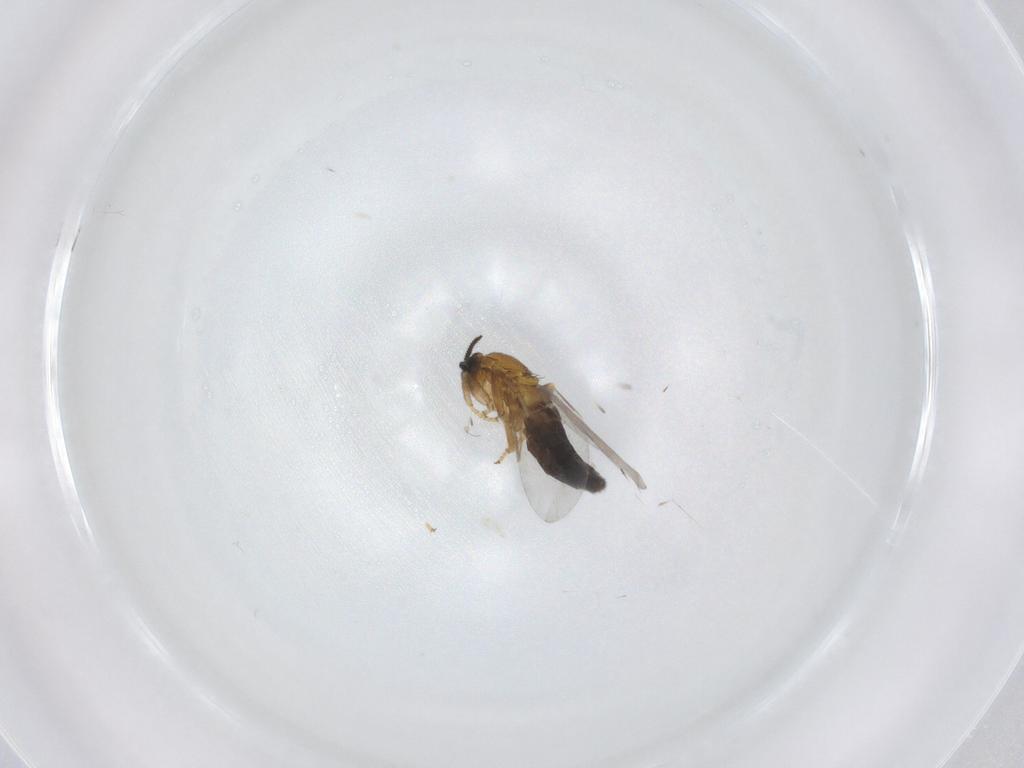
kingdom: Animalia
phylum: Arthropoda
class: Insecta
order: Diptera
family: Scatopsidae
